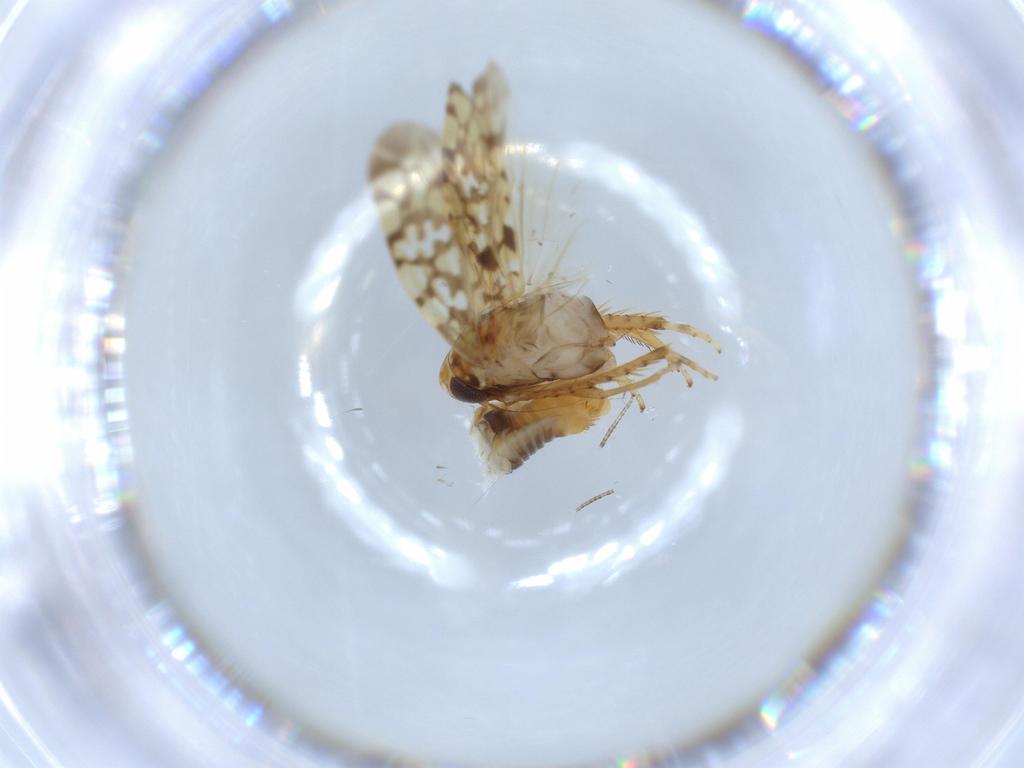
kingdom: Animalia
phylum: Arthropoda
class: Insecta
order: Hemiptera
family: Cicadellidae
